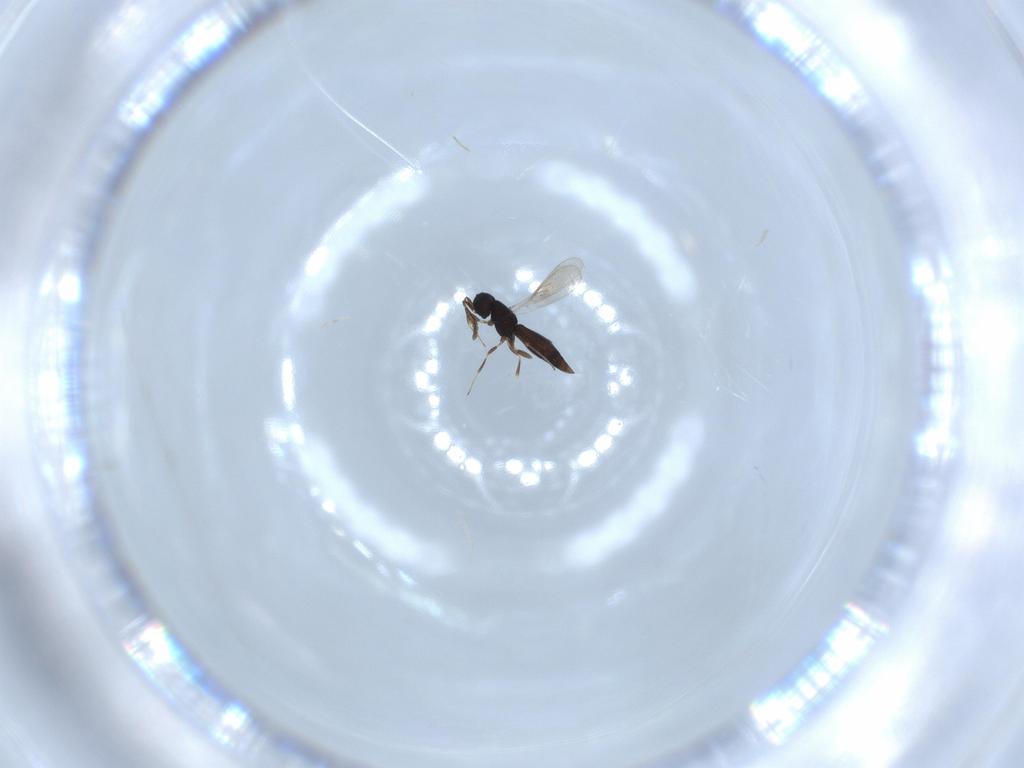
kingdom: Animalia
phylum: Arthropoda
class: Insecta
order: Hymenoptera
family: Scelionidae
